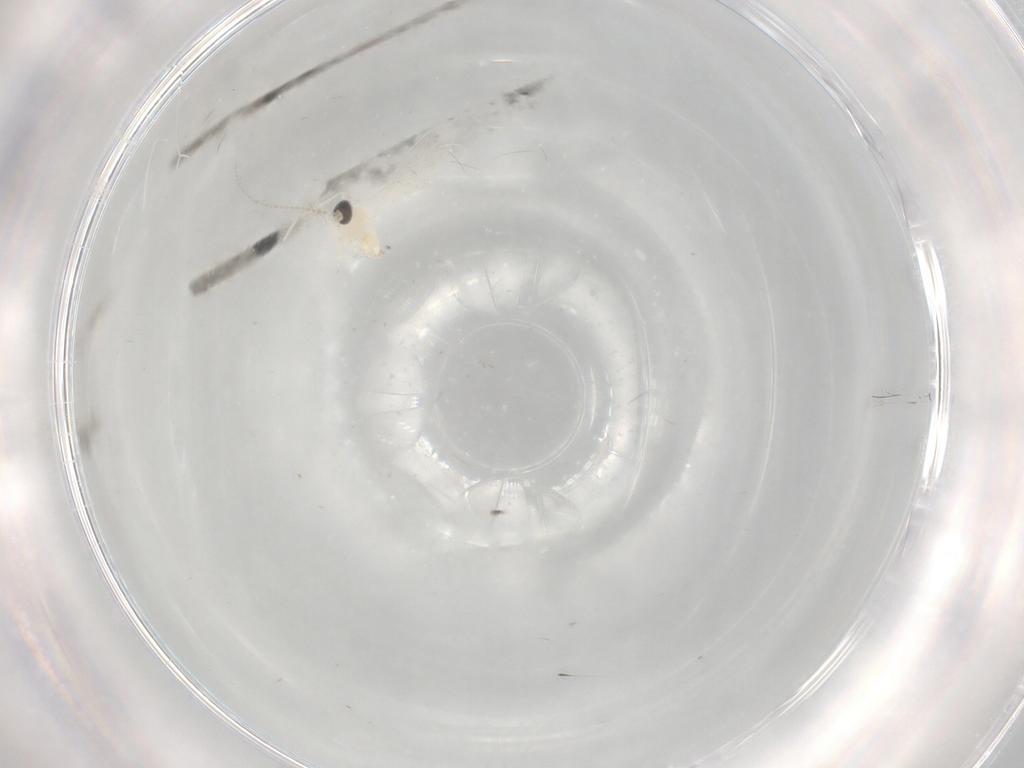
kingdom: Animalia
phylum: Arthropoda
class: Insecta
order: Diptera
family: Cecidomyiidae
